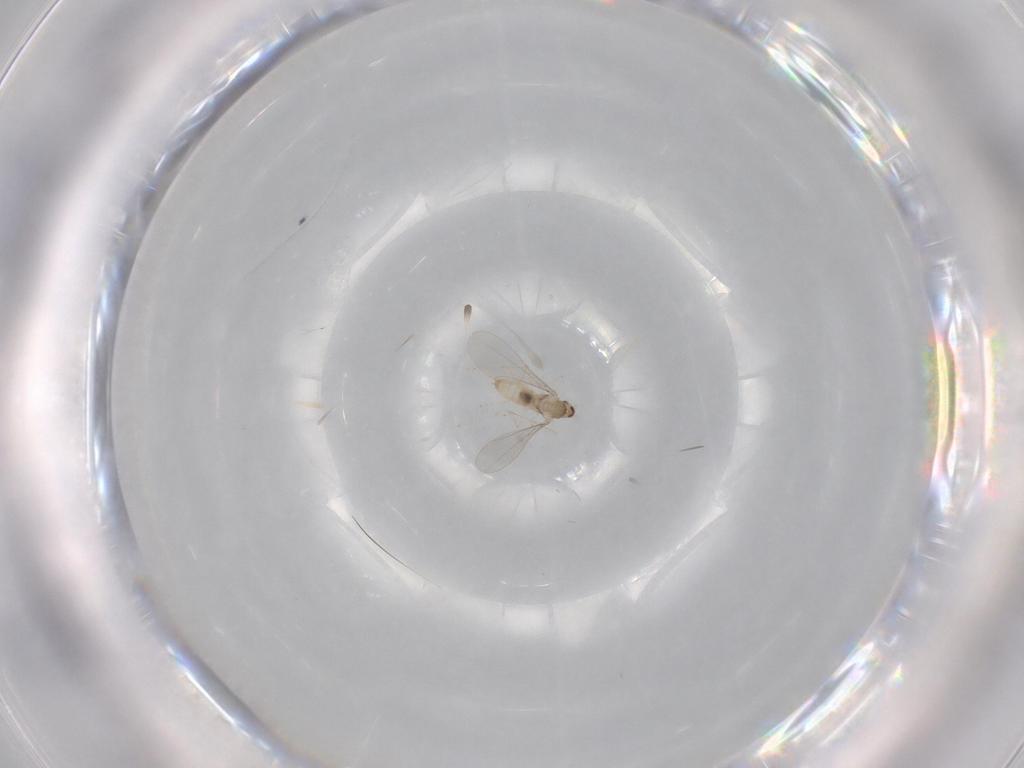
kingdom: Animalia
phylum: Arthropoda
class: Insecta
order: Diptera
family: Cecidomyiidae
